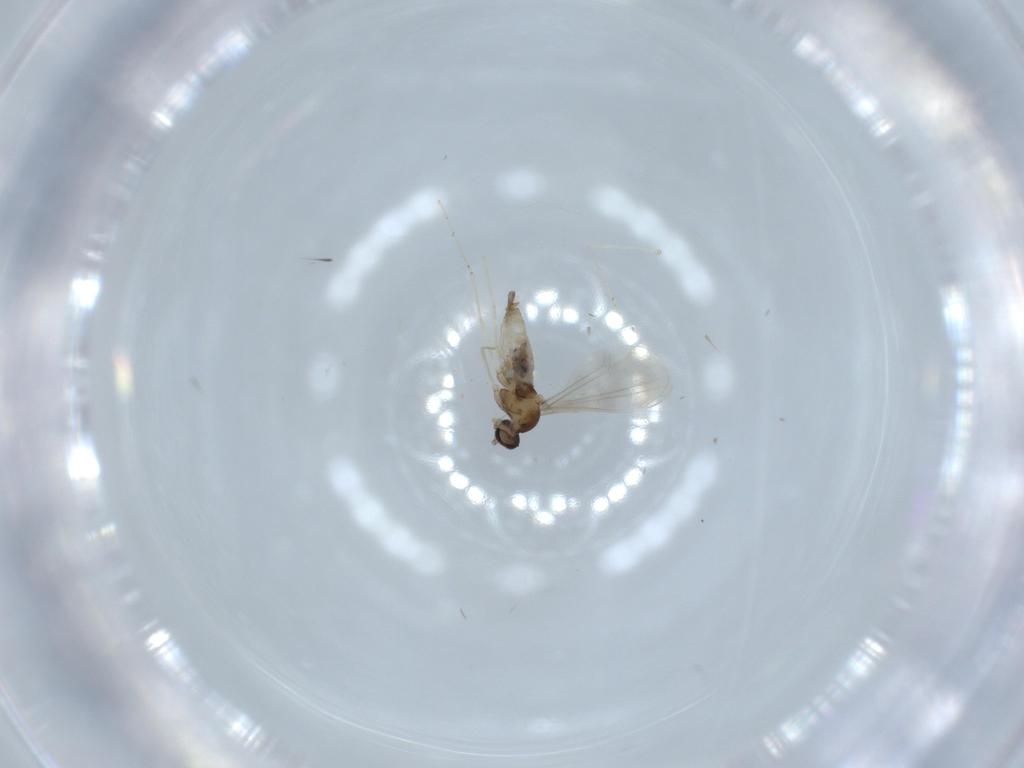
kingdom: Animalia
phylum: Arthropoda
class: Insecta
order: Diptera
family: Cecidomyiidae
